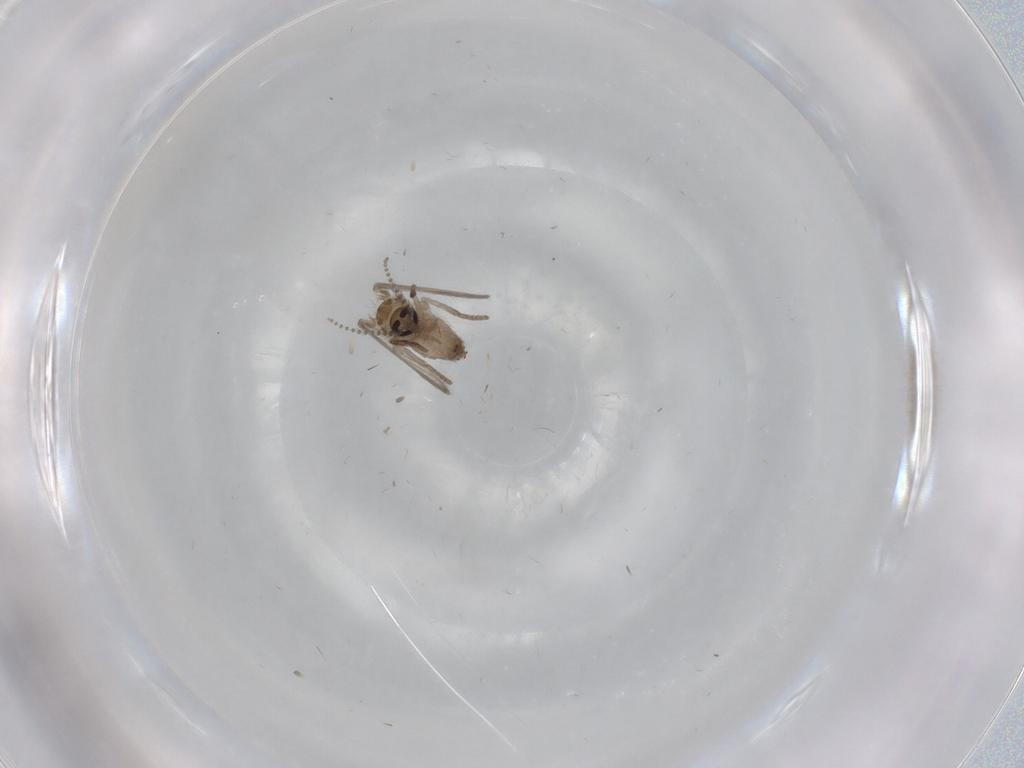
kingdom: Animalia
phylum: Arthropoda
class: Insecta
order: Diptera
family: Psychodidae
